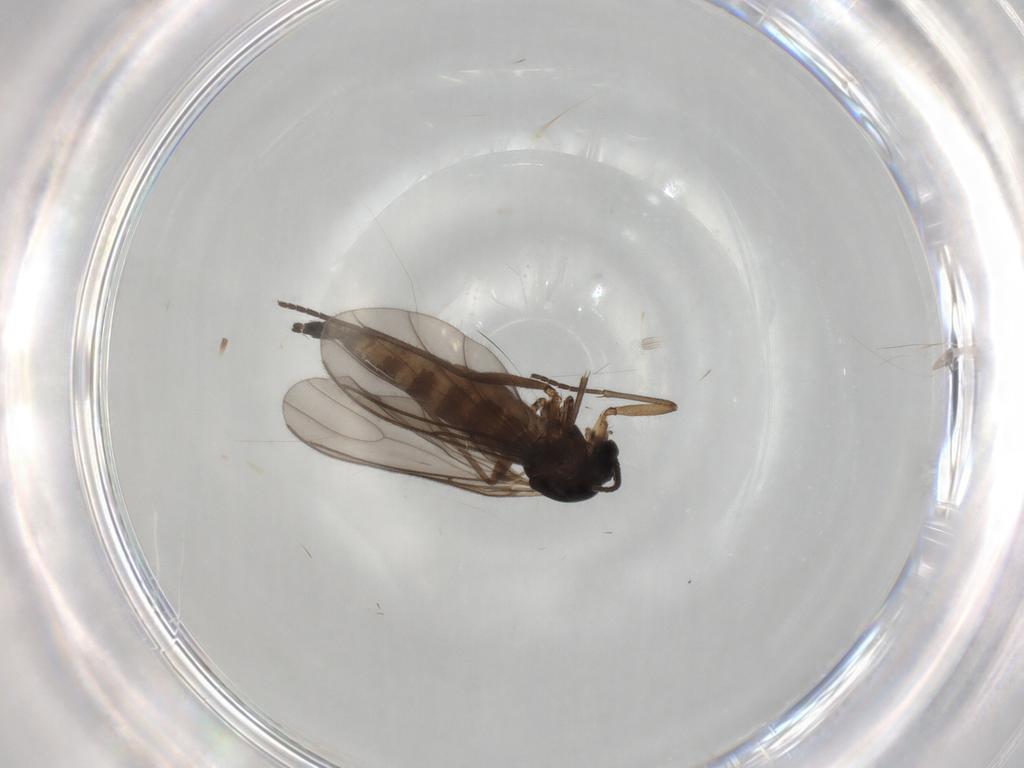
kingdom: Animalia
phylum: Arthropoda
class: Insecta
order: Diptera
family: Sciaridae
